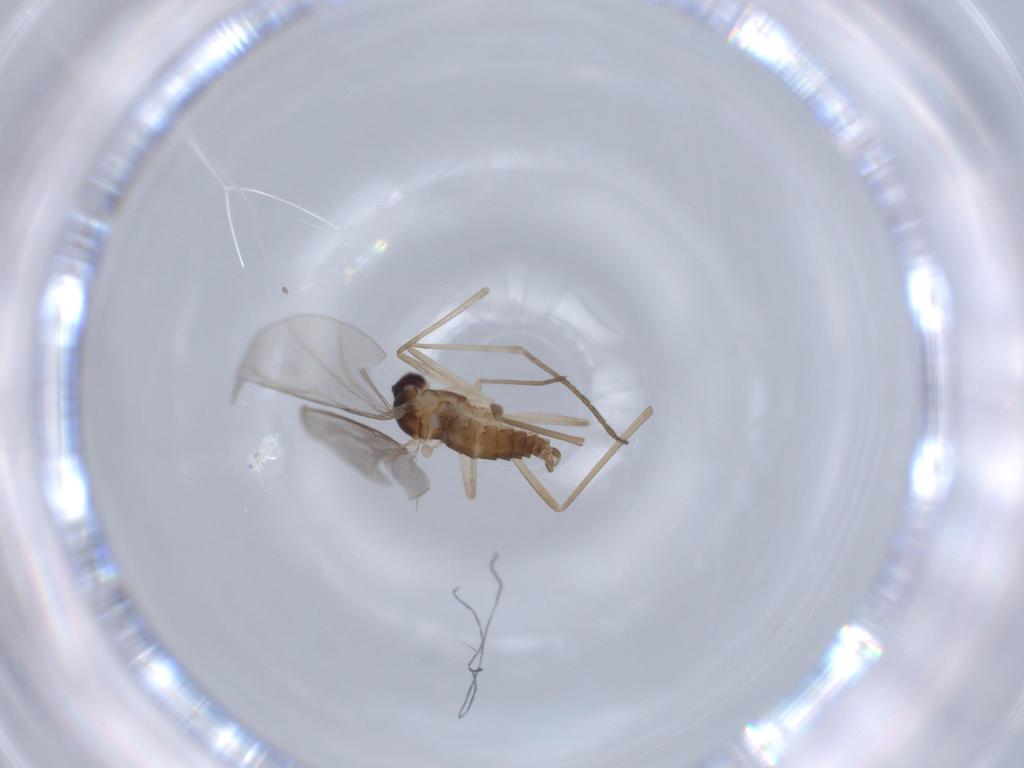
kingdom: Animalia
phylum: Arthropoda
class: Insecta
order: Diptera
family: Cecidomyiidae
